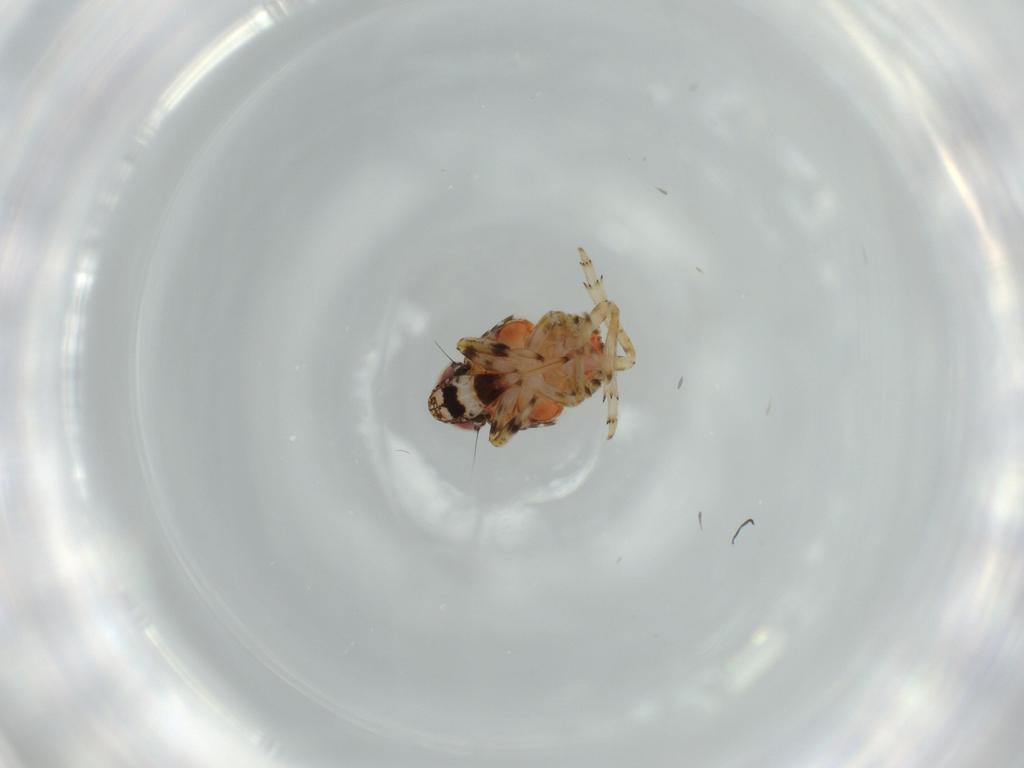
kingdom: Animalia
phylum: Arthropoda
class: Insecta
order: Hemiptera
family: Issidae
